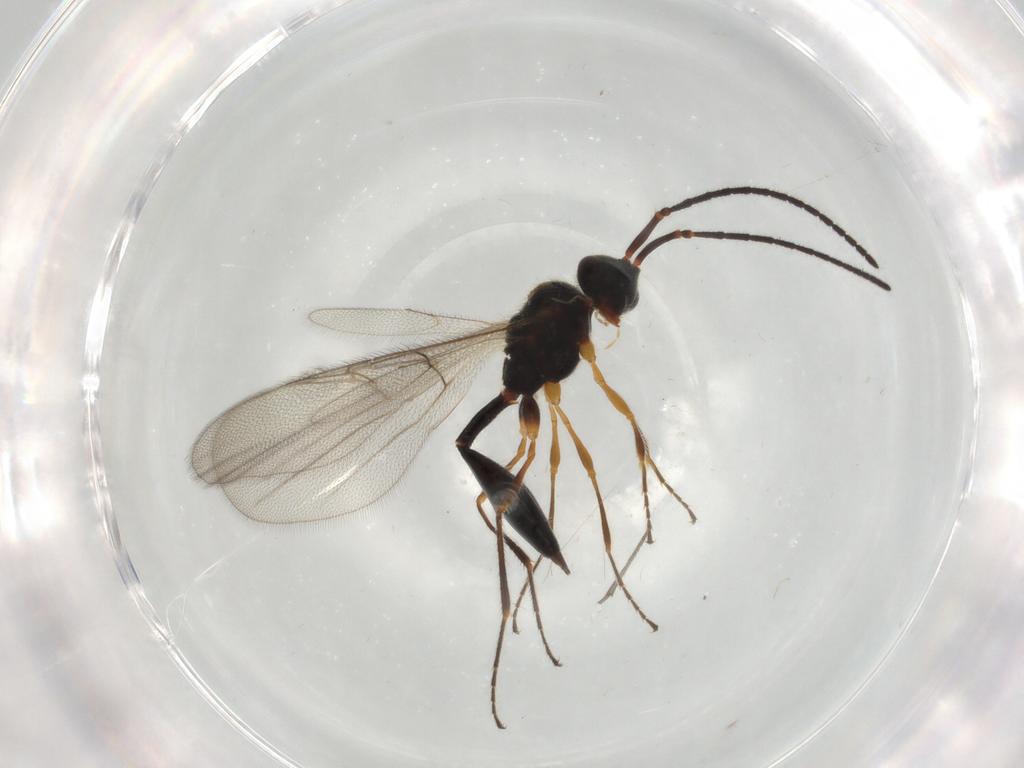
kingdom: Animalia
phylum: Arthropoda
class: Insecta
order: Hymenoptera
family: Diapriidae
